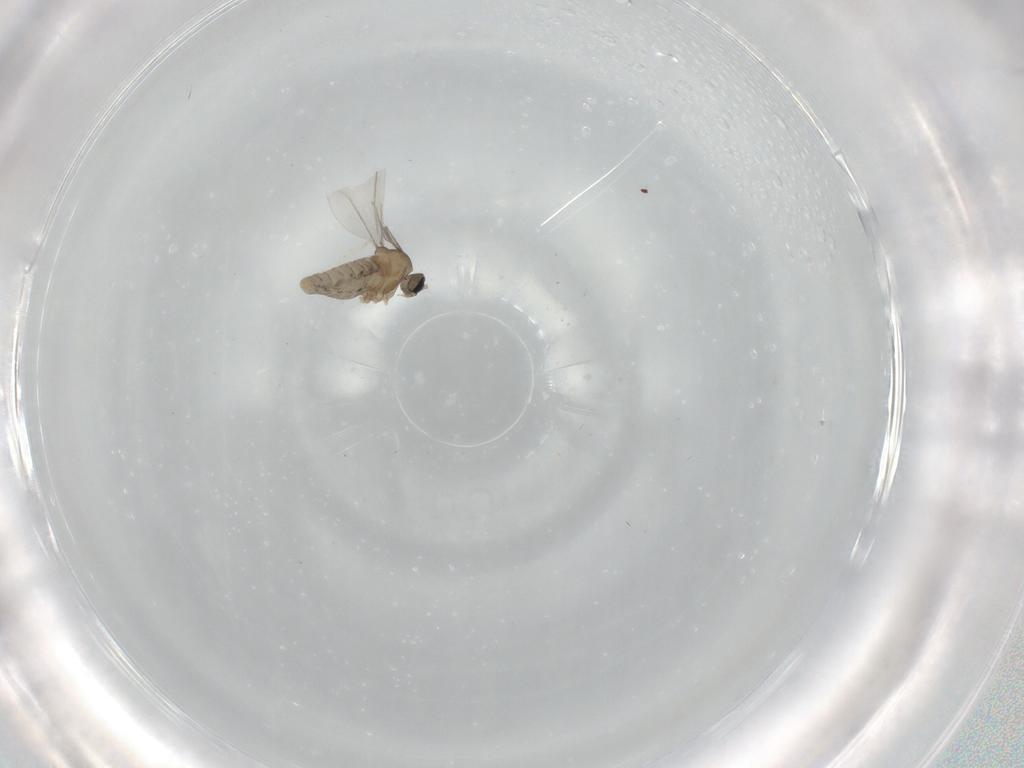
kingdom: Animalia
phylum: Arthropoda
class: Insecta
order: Diptera
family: Cecidomyiidae
